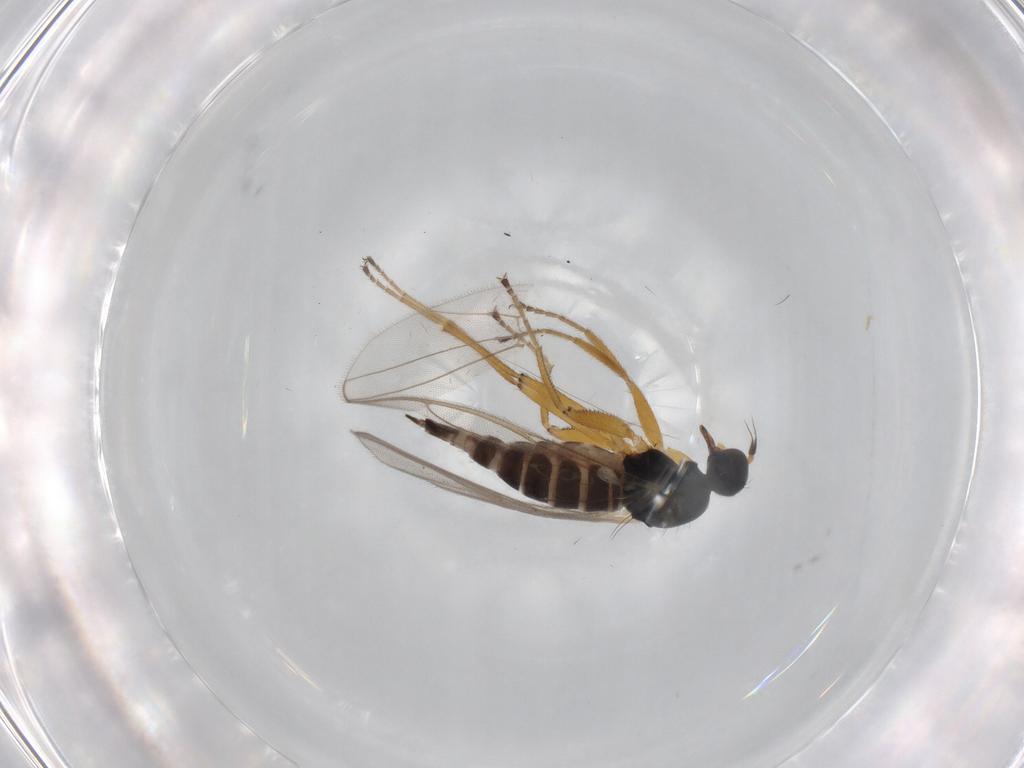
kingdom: Animalia
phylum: Arthropoda
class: Insecta
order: Diptera
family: Hybotidae
